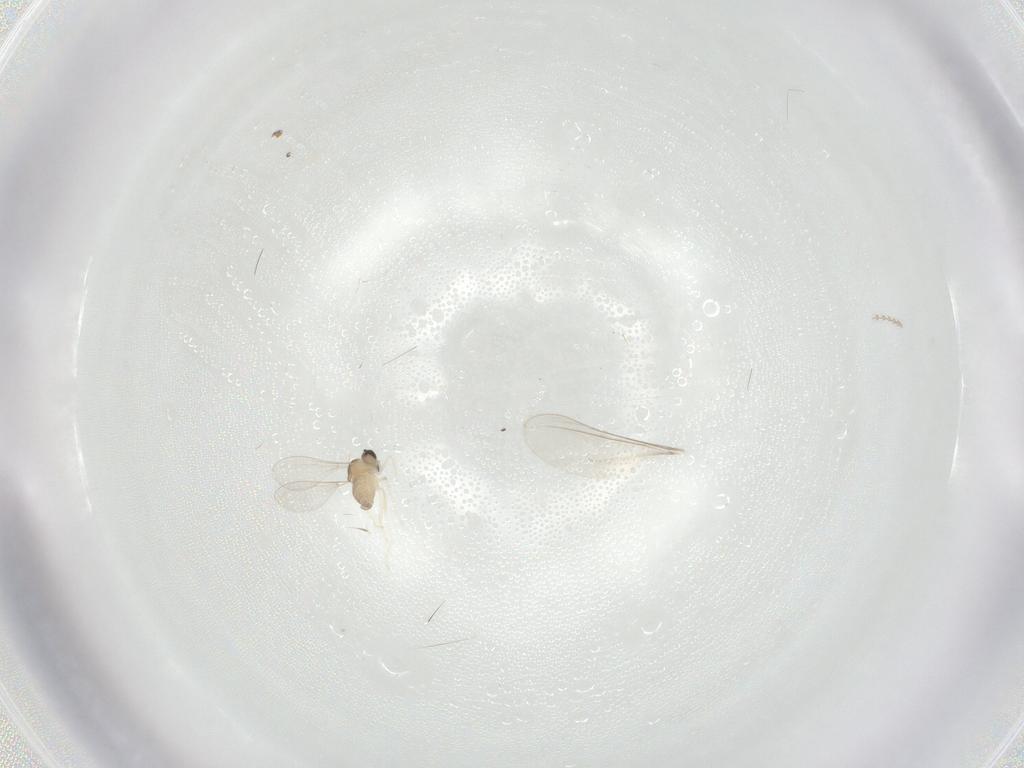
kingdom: Animalia
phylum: Arthropoda
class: Insecta
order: Diptera
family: Cecidomyiidae
